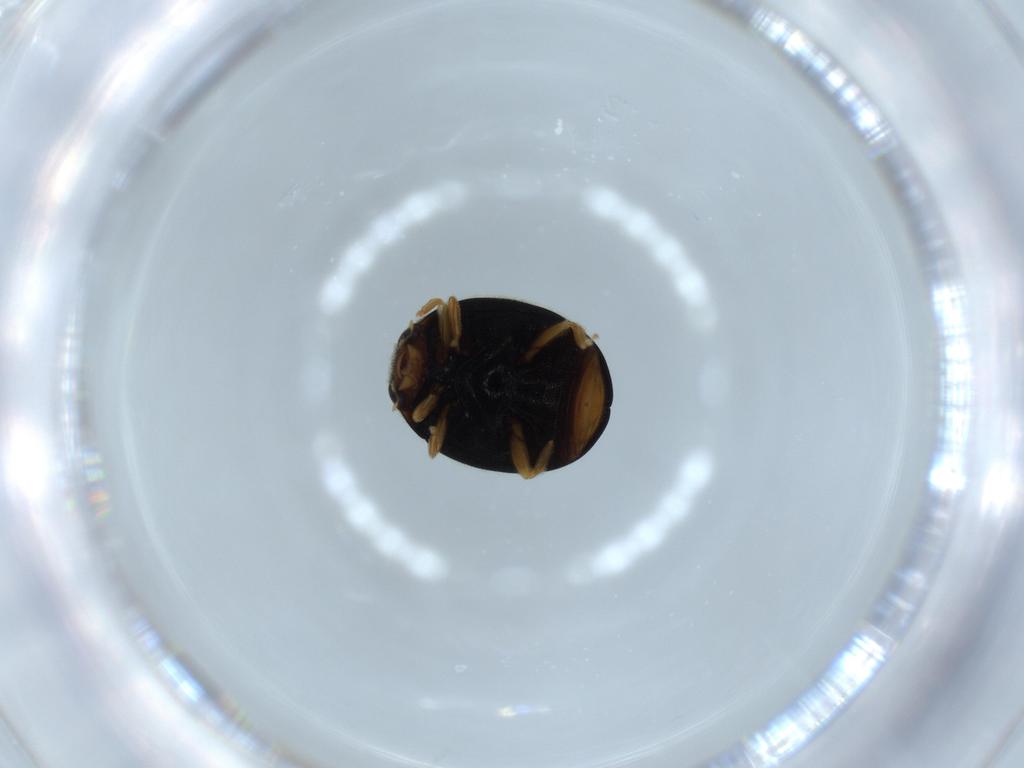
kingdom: Animalia
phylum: Arthropoda
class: Insecta
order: Coleoptera
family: Coccinellidae
